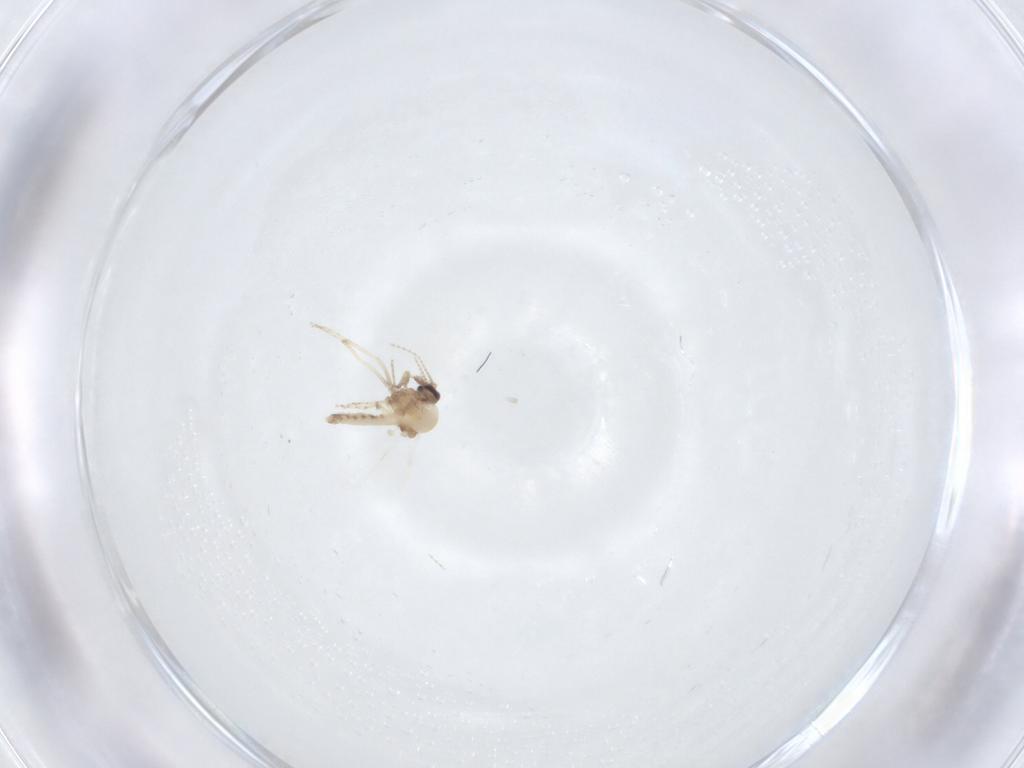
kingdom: Animalia
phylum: Arthropoda
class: Insecta
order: Diptera
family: Ceratopogonidae
